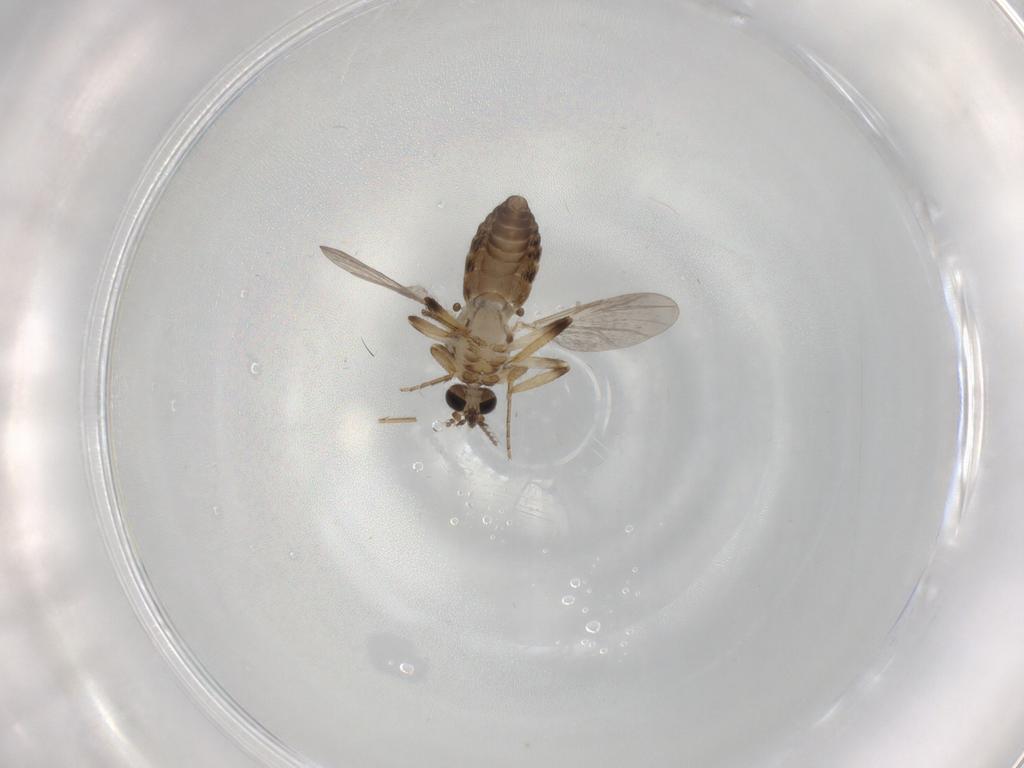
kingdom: Animalia
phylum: Arthropoda
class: Insecta
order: Diptera
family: Ceratopogonidae
